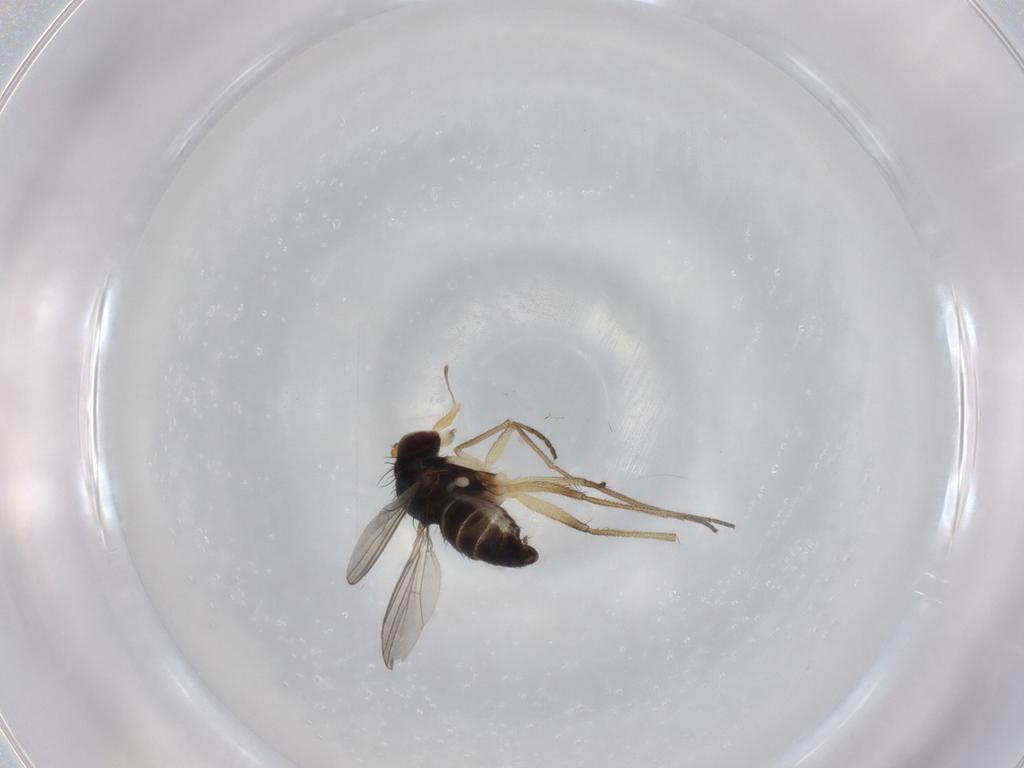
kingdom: Animalia
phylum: Arthropoda
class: Insecta
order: Diptera
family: Dolichopodidae
